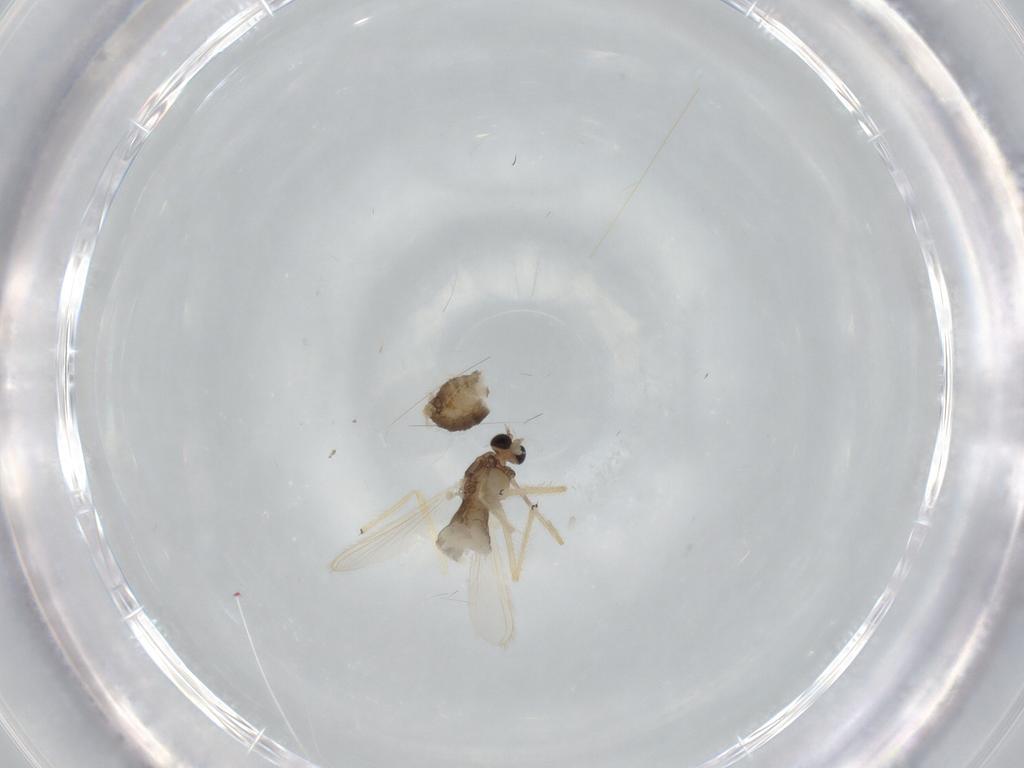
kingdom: Animalia
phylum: Arthropoda
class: Insecta
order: Diptera
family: Chironomidae
